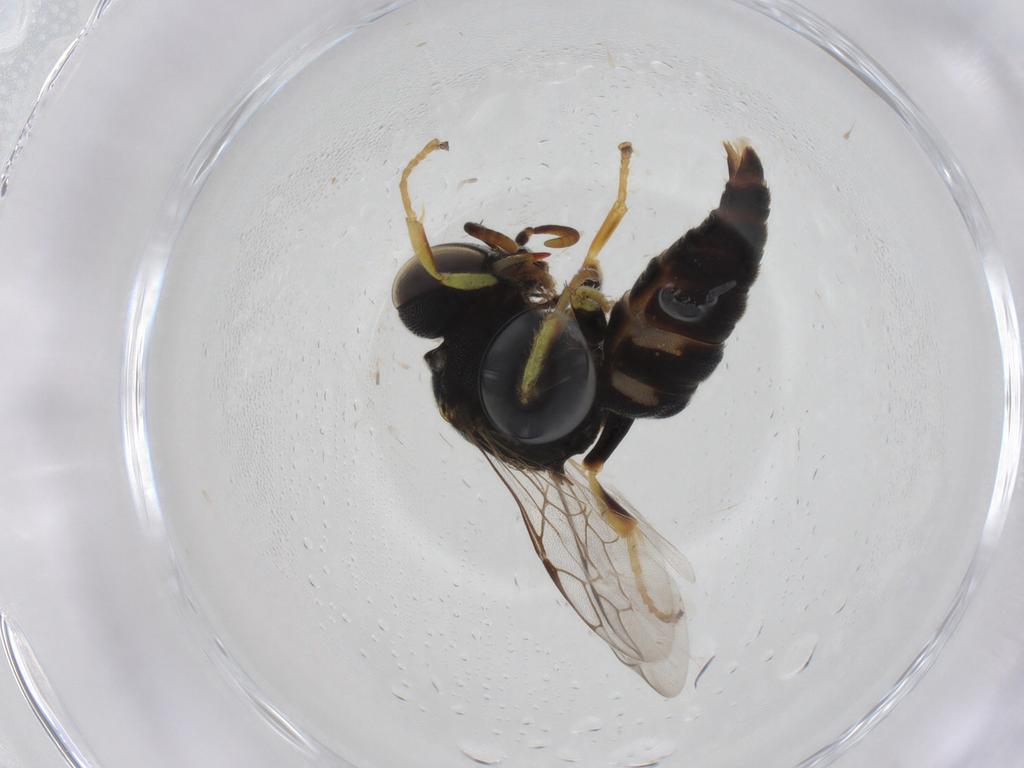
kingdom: Animalia
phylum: Arthropoda
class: Insecta
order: Hymenoptera
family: Crabronidae
